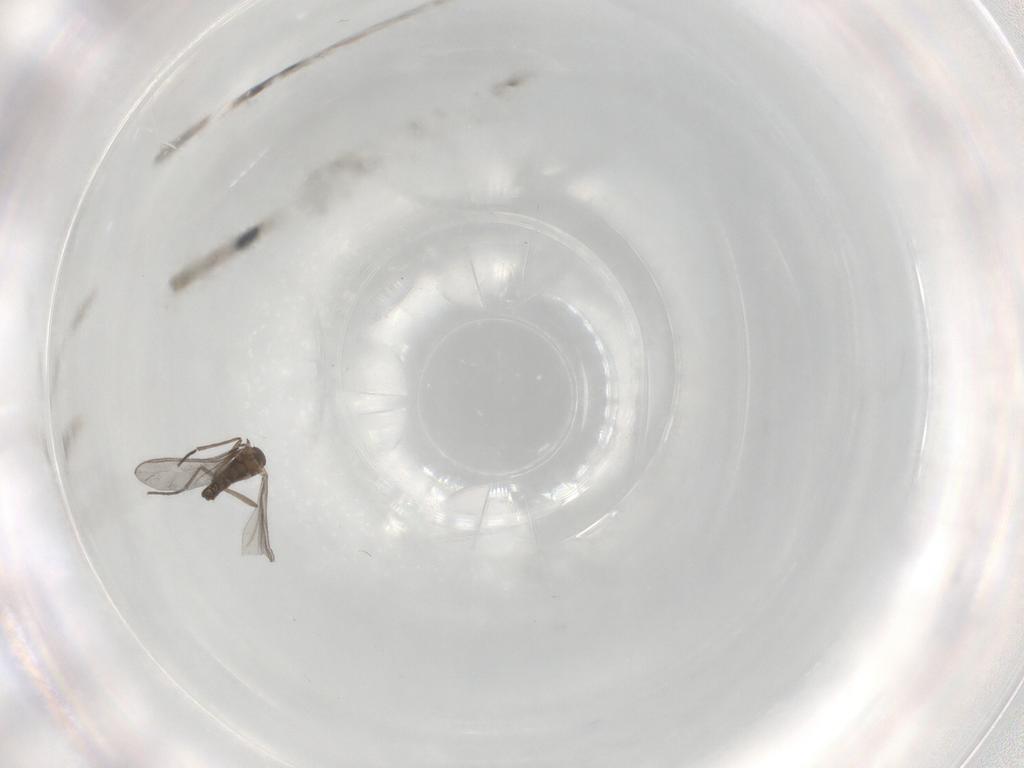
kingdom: Animalia
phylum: Arthropoda
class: Insecta
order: Diptera
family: Sciaridae
